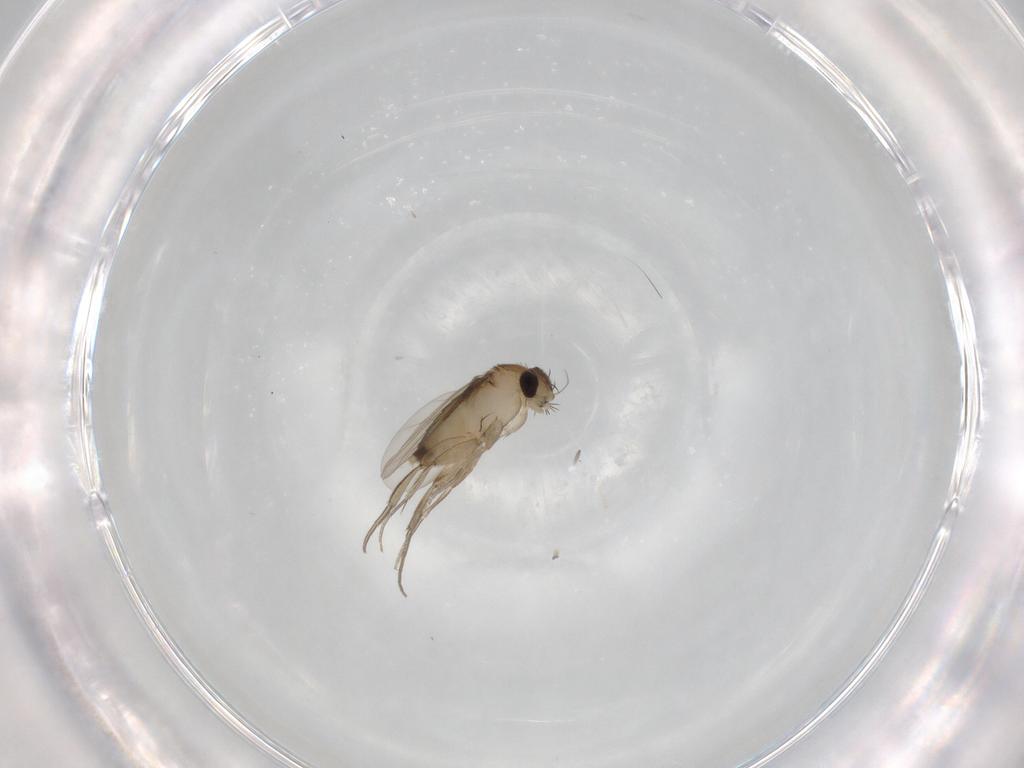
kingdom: Animalia
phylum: Arthropoda
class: Insecta
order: Diptera
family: Phoridae
